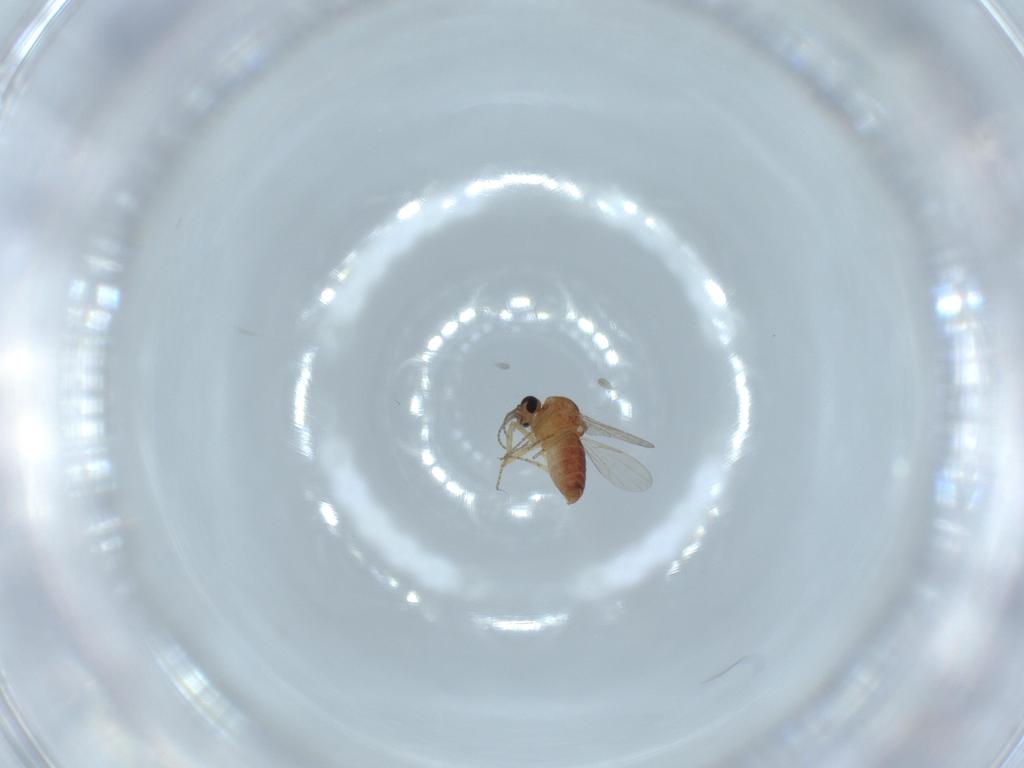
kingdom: Animalia
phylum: Arthropoda
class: Insecta
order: Diptera
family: Ceratopogonidae
